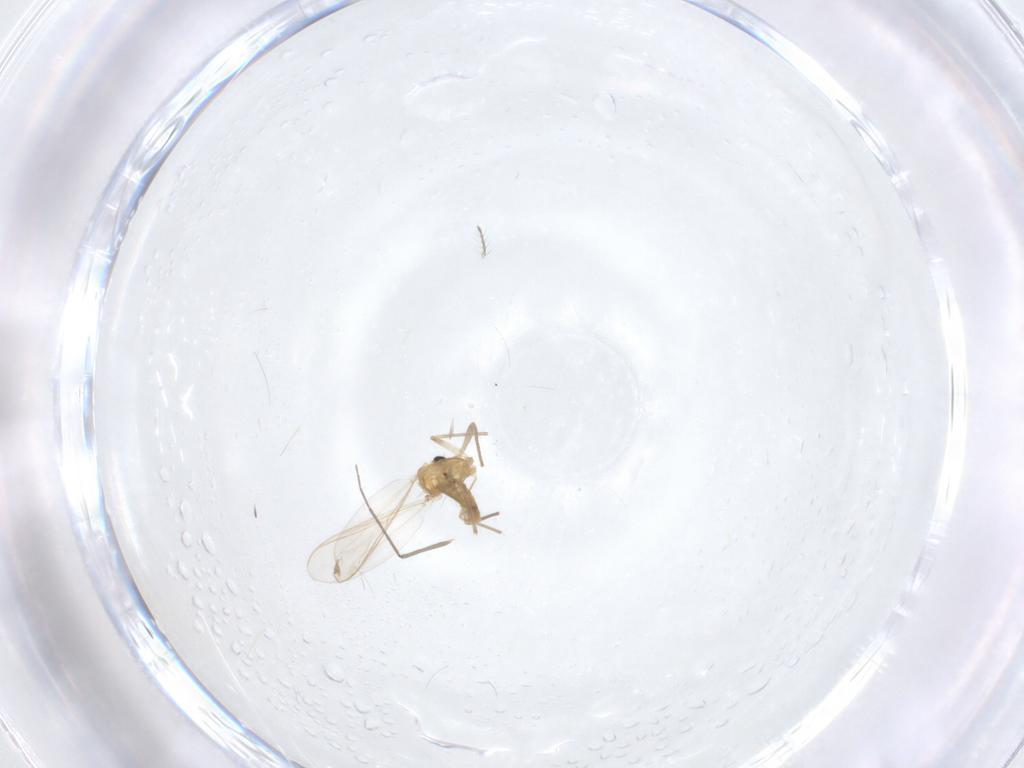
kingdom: Animalia
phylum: Arthropoda
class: Insecta
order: Diptera
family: Chironomidae
